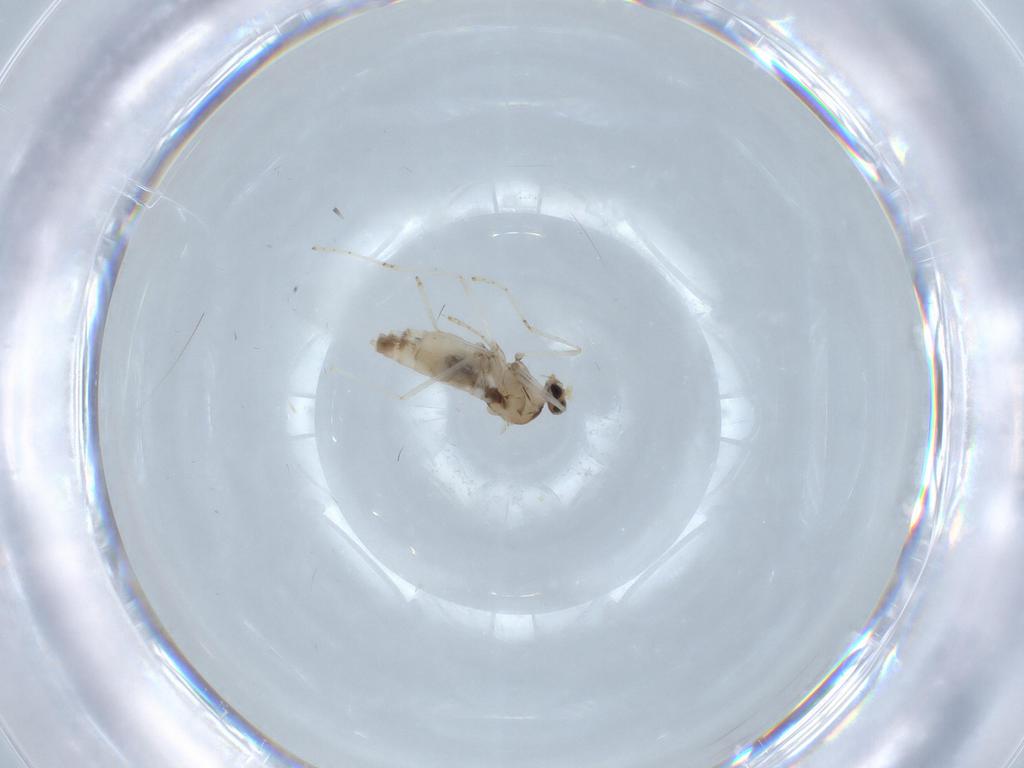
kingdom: Animalia
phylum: Arthropoda
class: Insecta
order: Diptera
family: Cecidomyiidae
